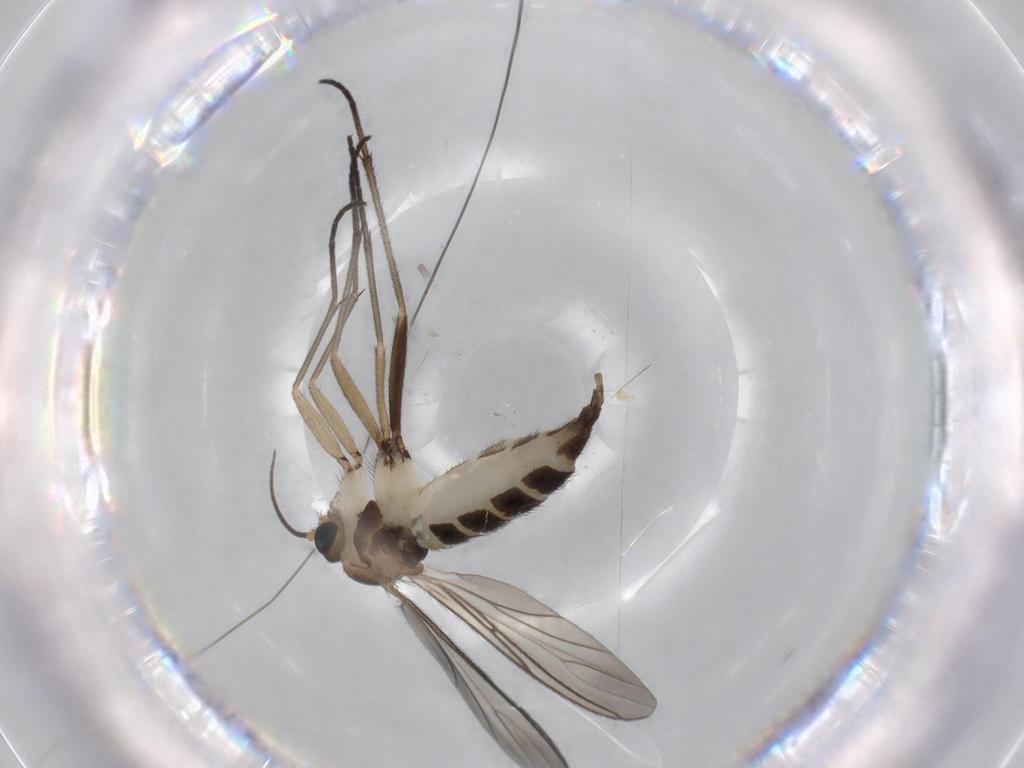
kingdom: Animalia
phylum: Arthropoda
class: Insecta
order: Diptera
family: Sciaridae
